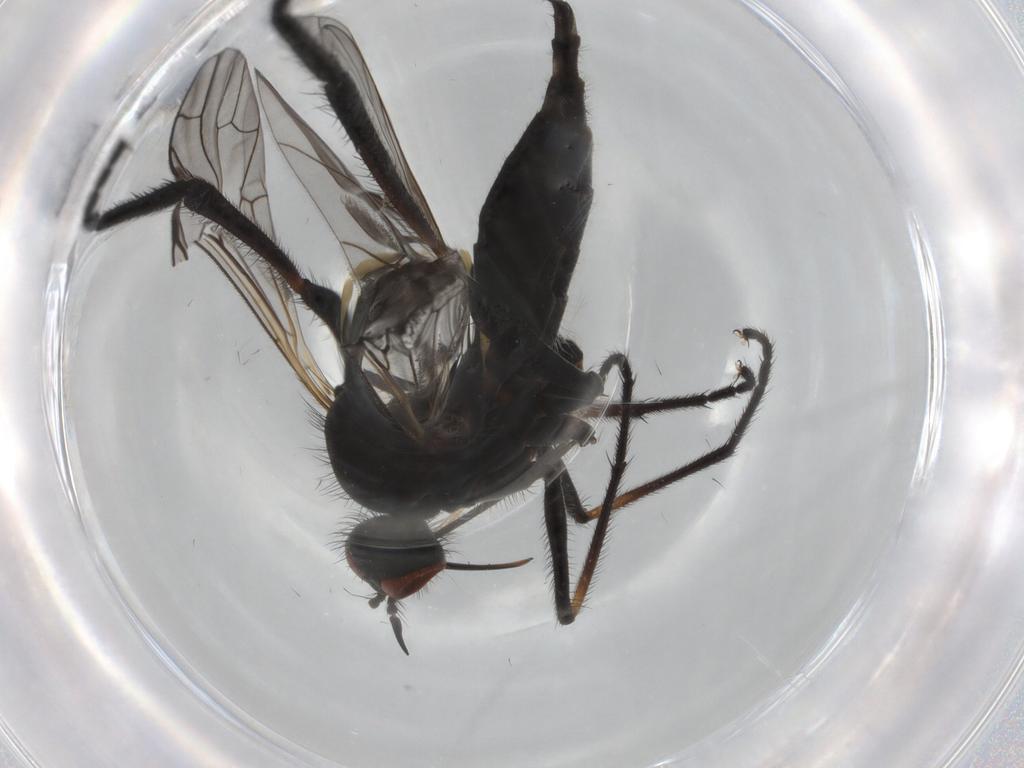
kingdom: Animalia
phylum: Arthropoda
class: Insecta
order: Diptera
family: Empididae
